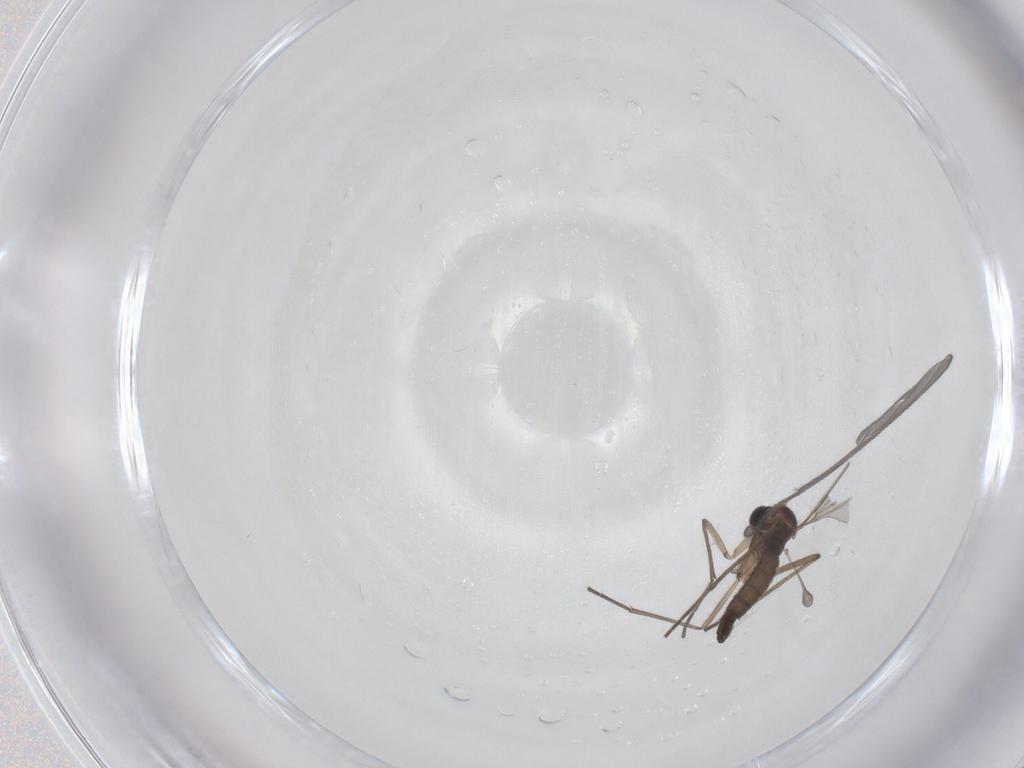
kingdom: Animalia
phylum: Arthropoda
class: Insecta
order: Diptera
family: Sciaridae
